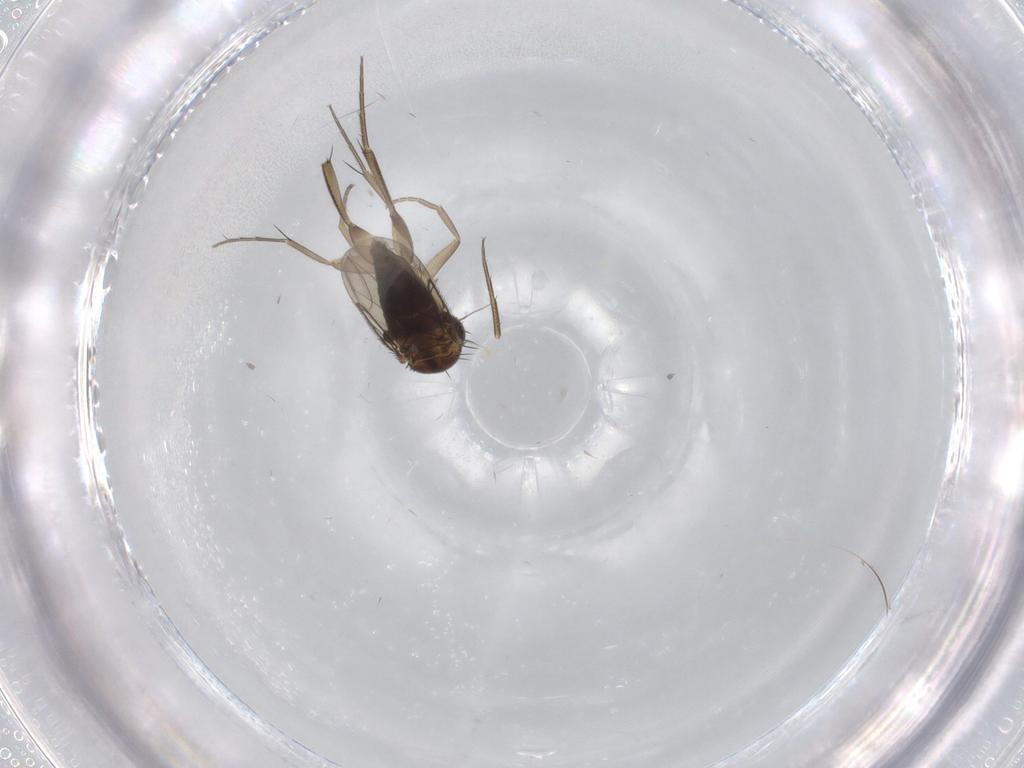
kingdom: Animalia
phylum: Arthropoda
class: Insecta
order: Diptera
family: Phoridae
